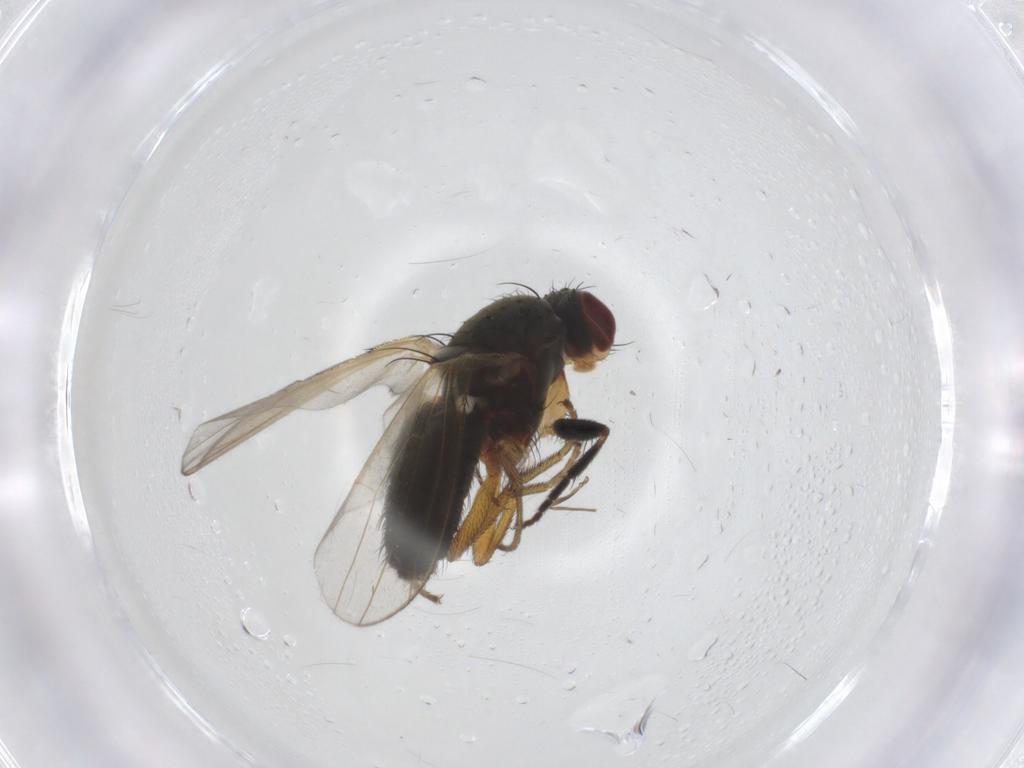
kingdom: Animalia
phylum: Arthropoda
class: Insecta
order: Diptera
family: Heleomyzidae
